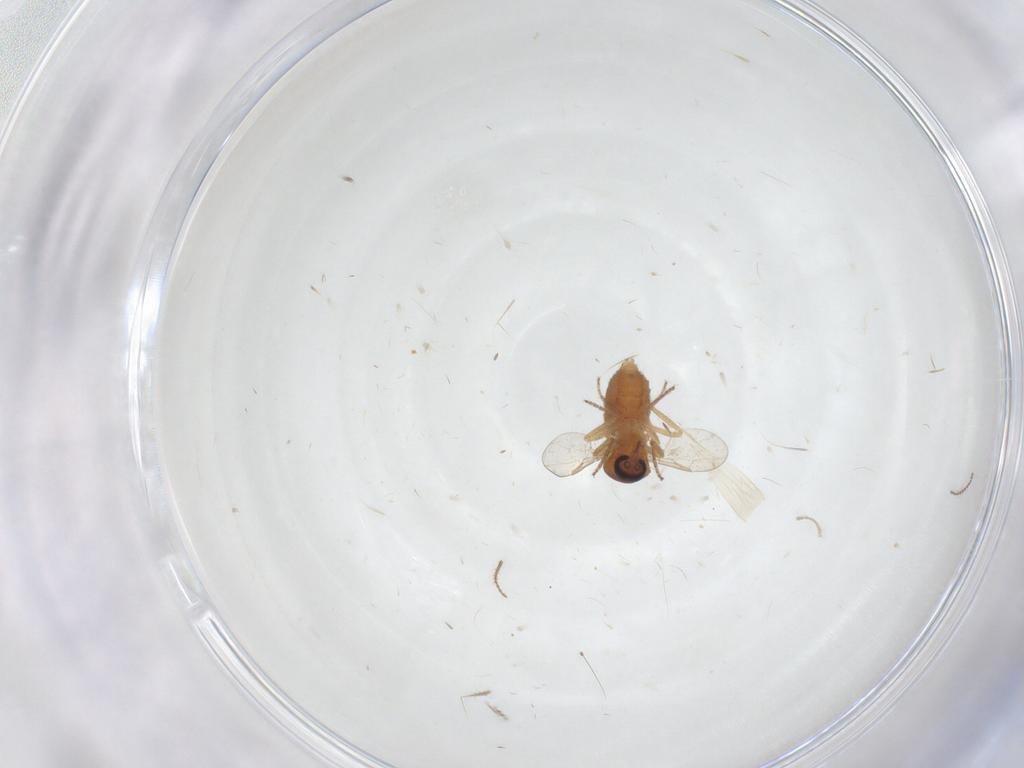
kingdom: Animalia
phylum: Arthropoda
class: Insecta
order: Diptera
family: Ceratopogonidae
